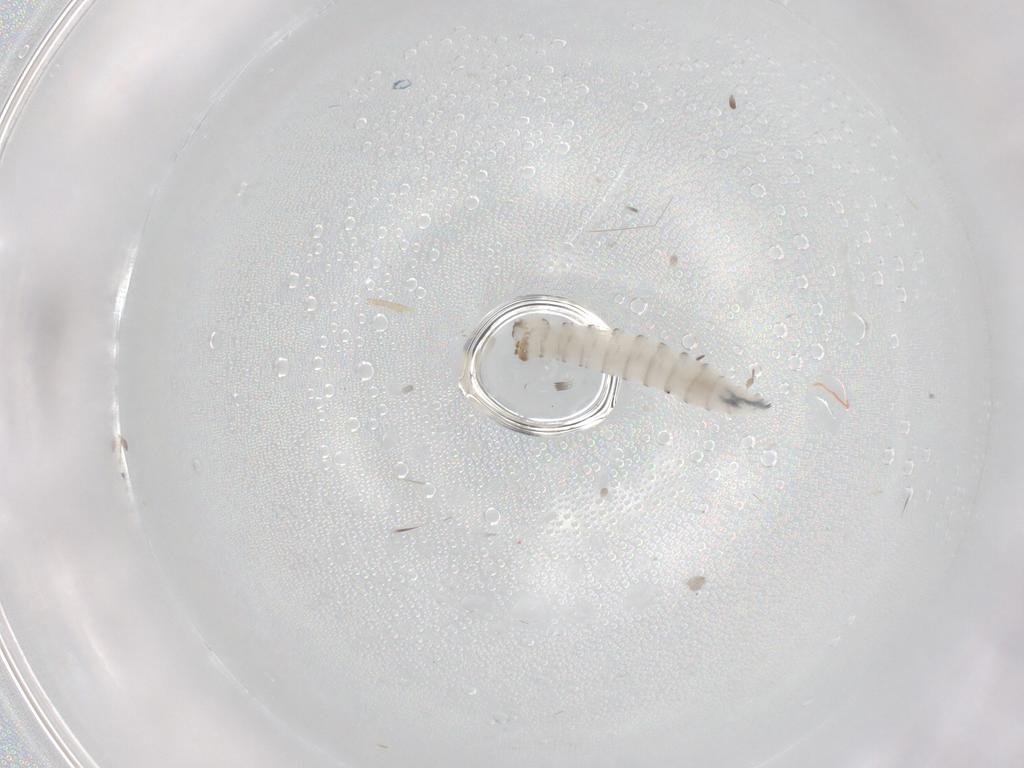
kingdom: Animalia
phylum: Arthropoda
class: Insecta
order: Diptera
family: Sarcophagidae
